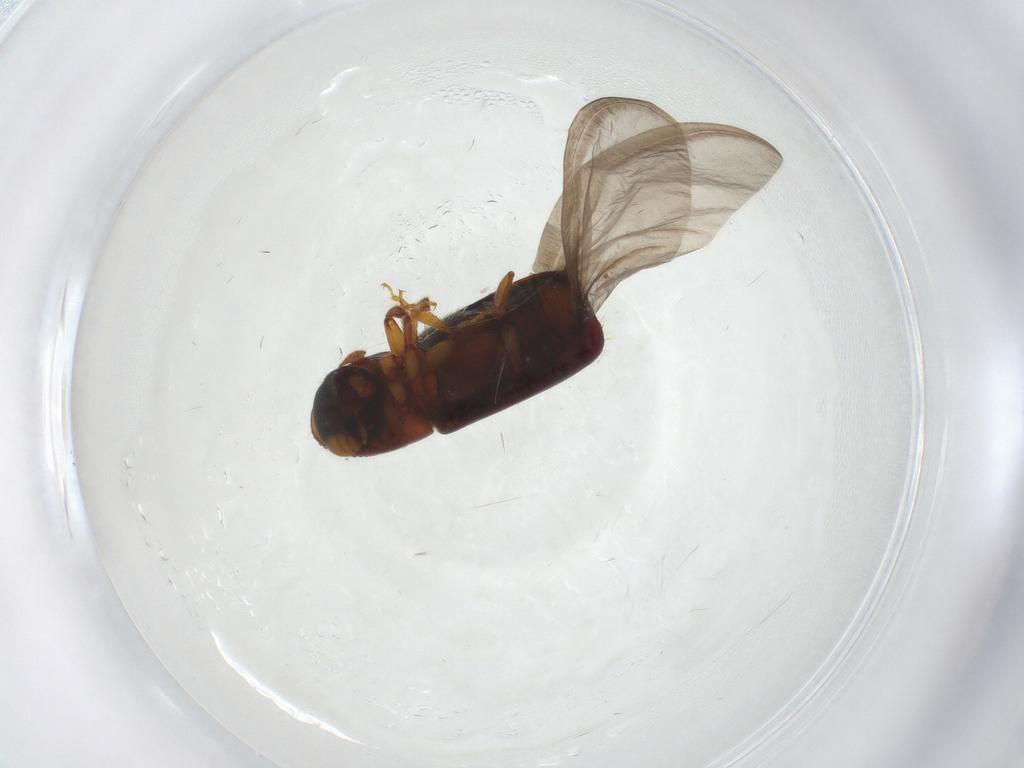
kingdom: Animalia
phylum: Arthropoda
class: Insecta
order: Coleoptera
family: Curculionidae
